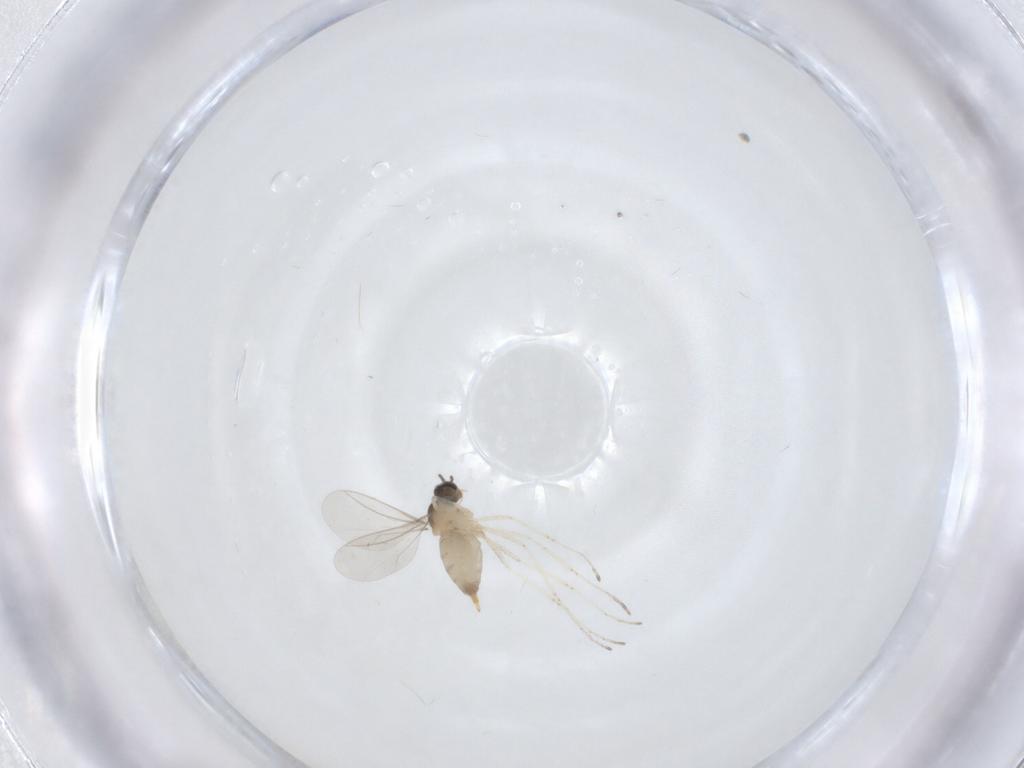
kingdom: Animalia
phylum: Arthropoda
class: Insecta
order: Diptera
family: Cecidomyiidae
